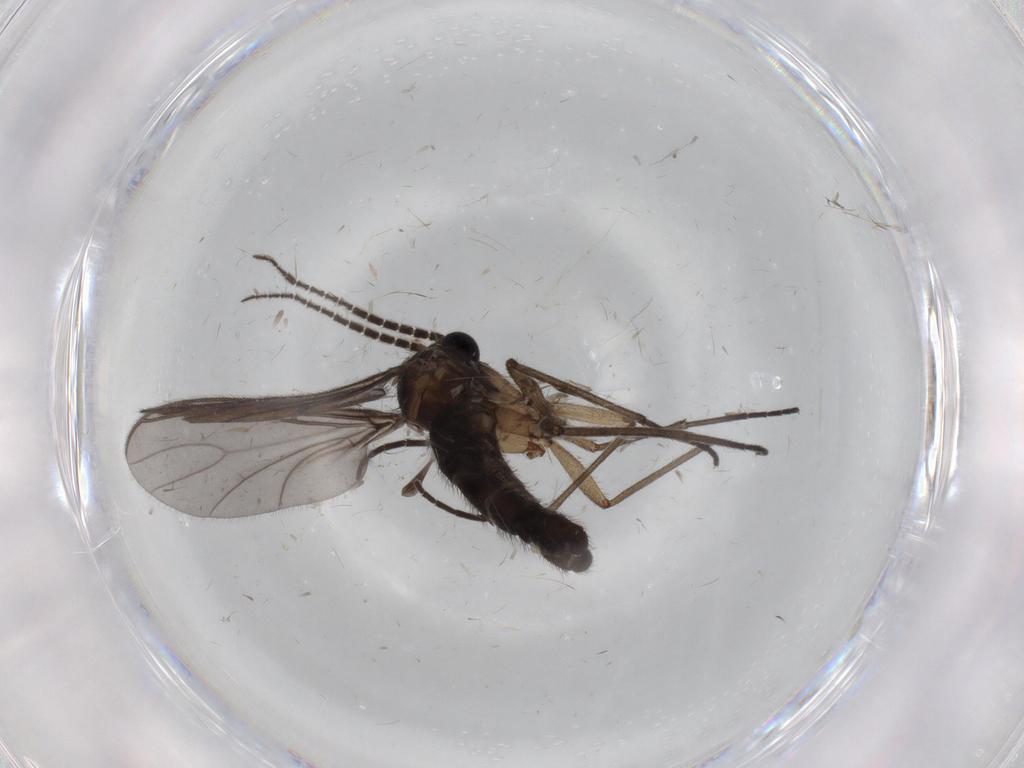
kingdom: Animalia
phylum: Arthropoda
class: Insecta
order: Diptera
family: Sciaridae
